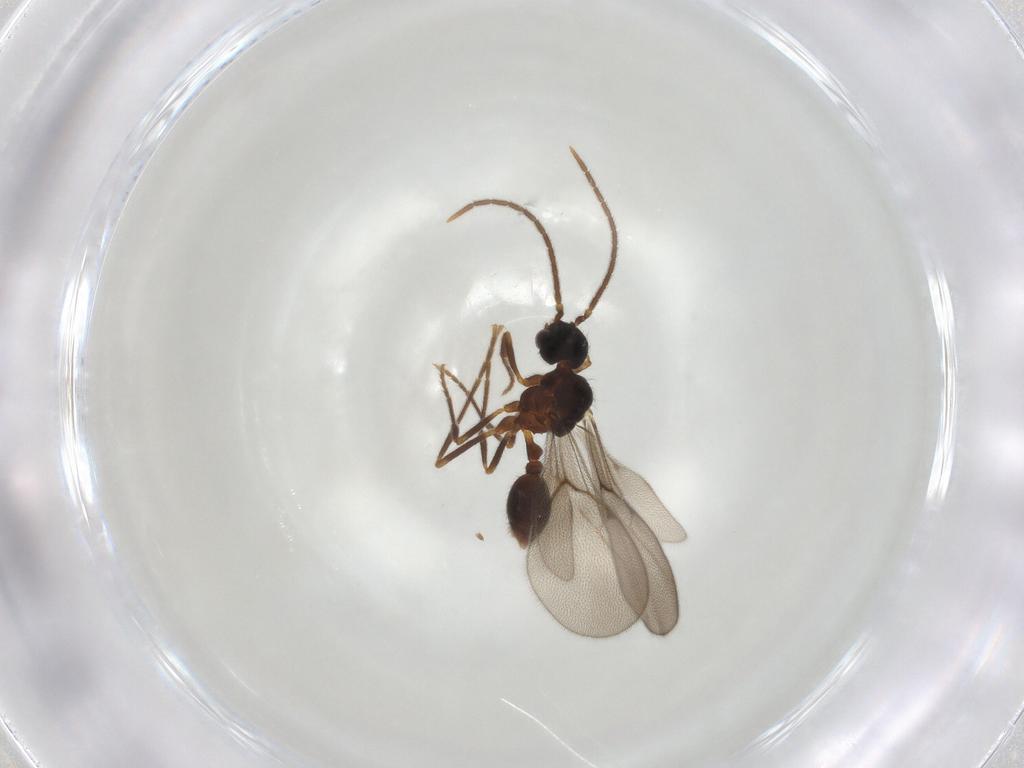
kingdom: Animalia
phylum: Arthropoda
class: Insecta
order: Hymenoptera
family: Formicidae
